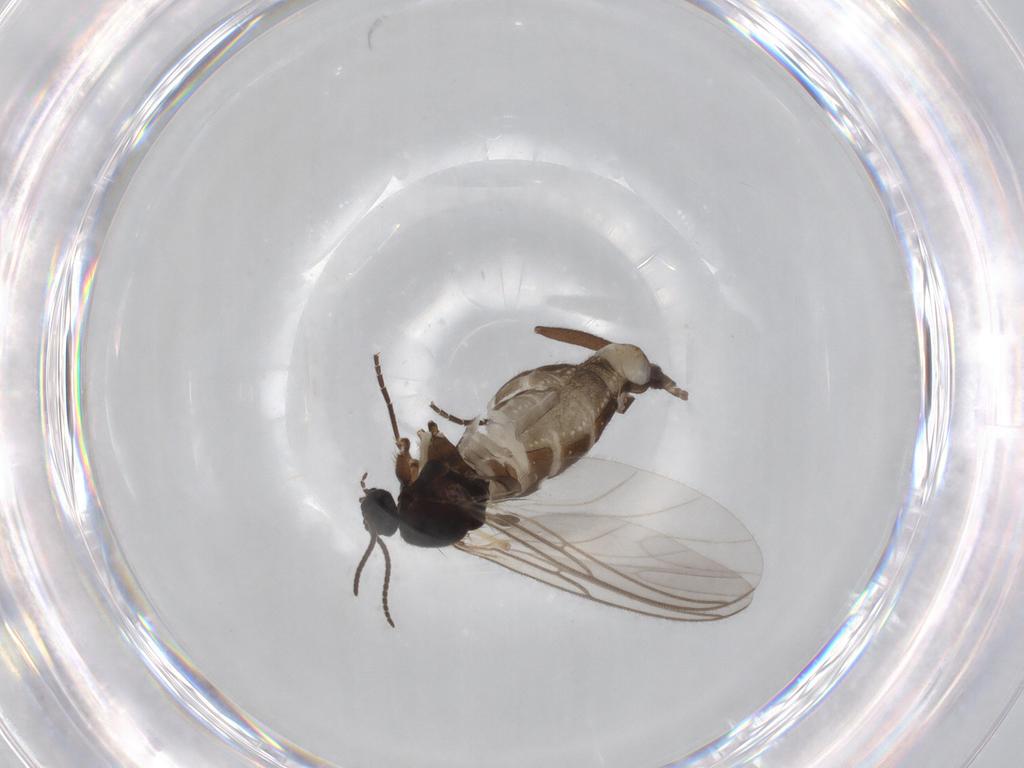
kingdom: Animalia
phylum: Arthropoda
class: Insecta
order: Diptera
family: Sciaridae
